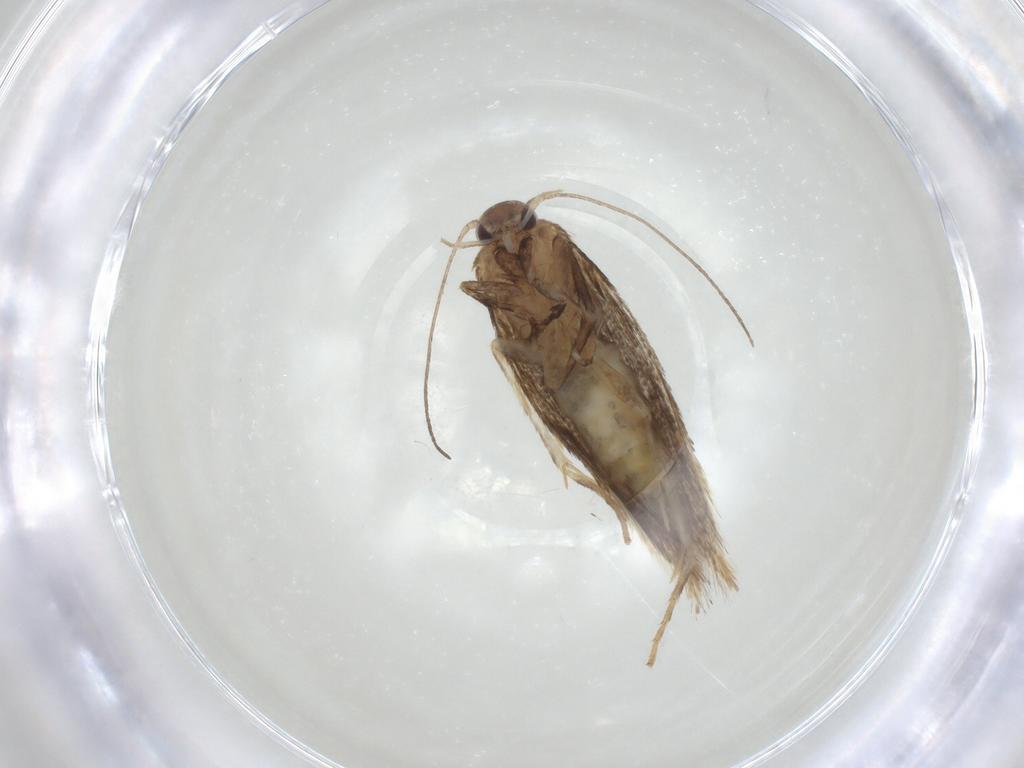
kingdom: Animalia
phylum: Arthropoda
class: Insecta
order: Lepidoptera
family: Elachistidae
